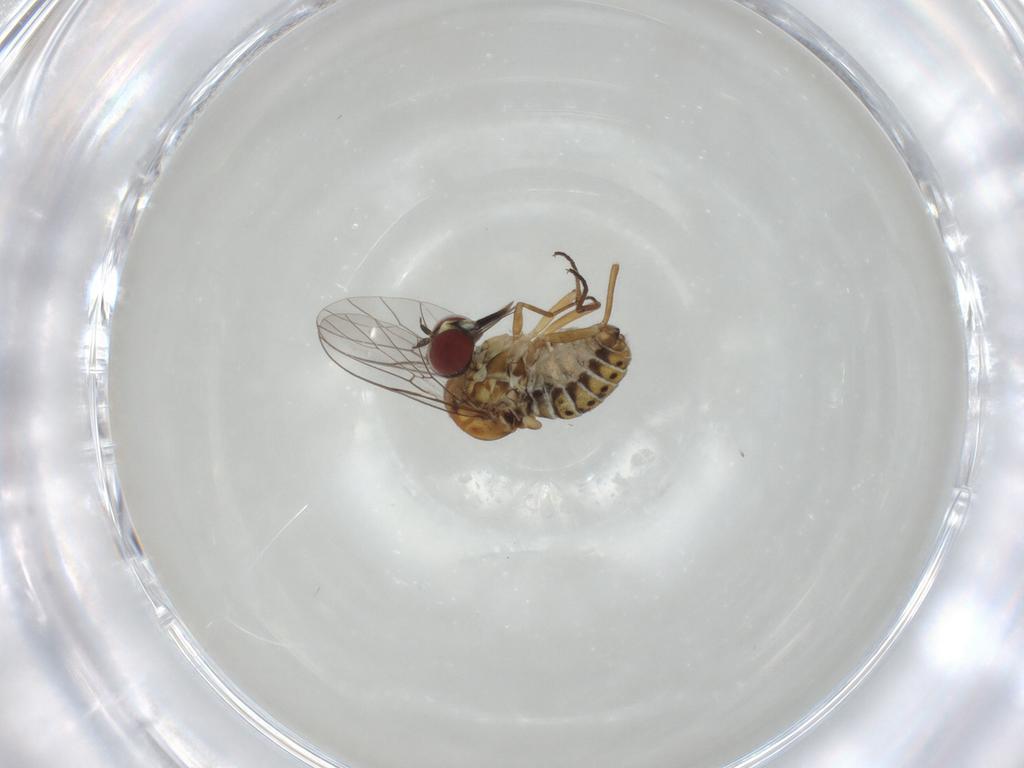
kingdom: Animalia
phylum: Arthropoda
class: Insecta
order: Diptera
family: Bombyliidae
